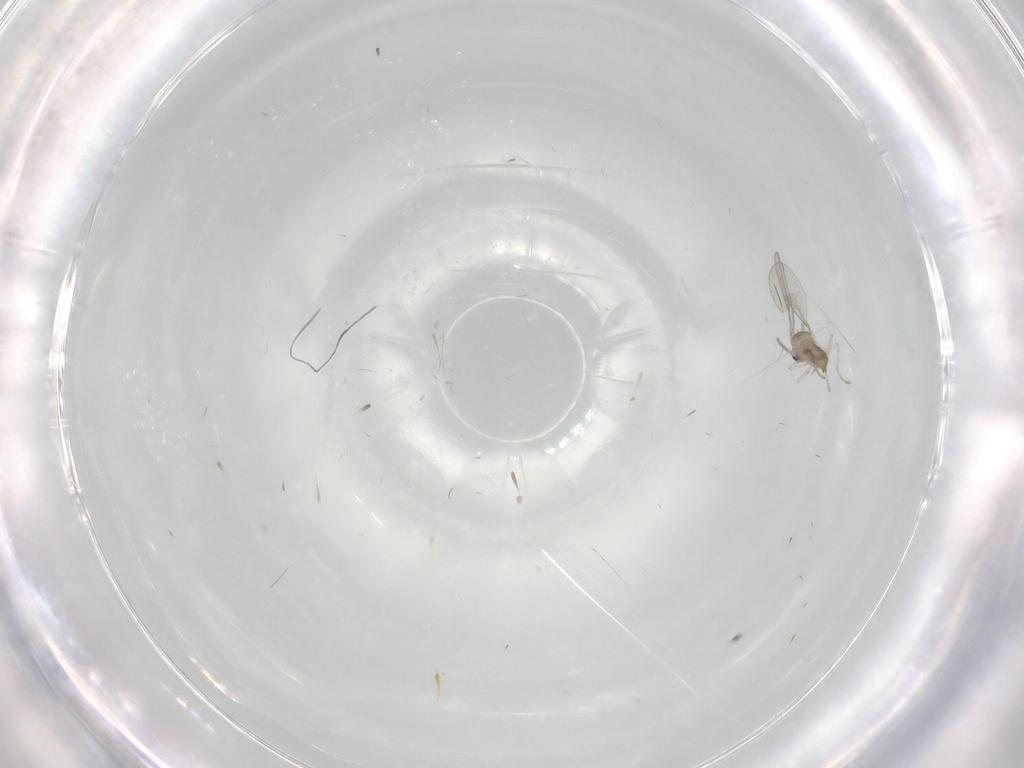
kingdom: Animalia
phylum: Arthropoda
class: Insecta
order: Diptera
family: Cecidomyiidae
